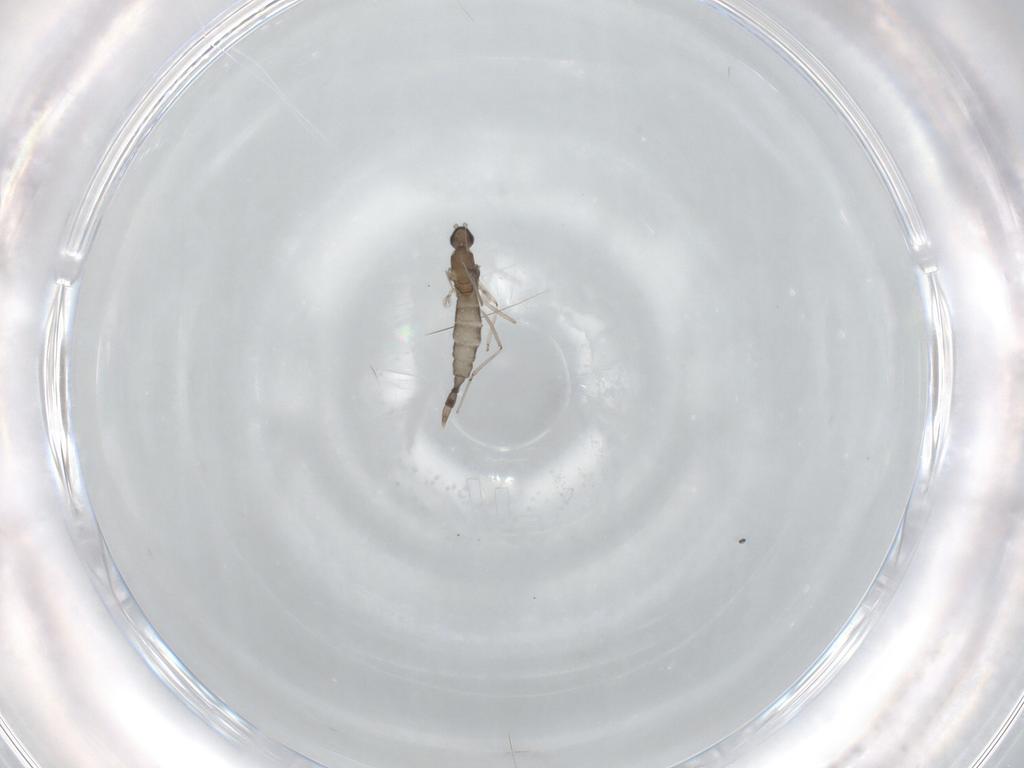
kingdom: Animalia
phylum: Arthropoda
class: Insecta
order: Diptera
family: Cecidomyiidae
